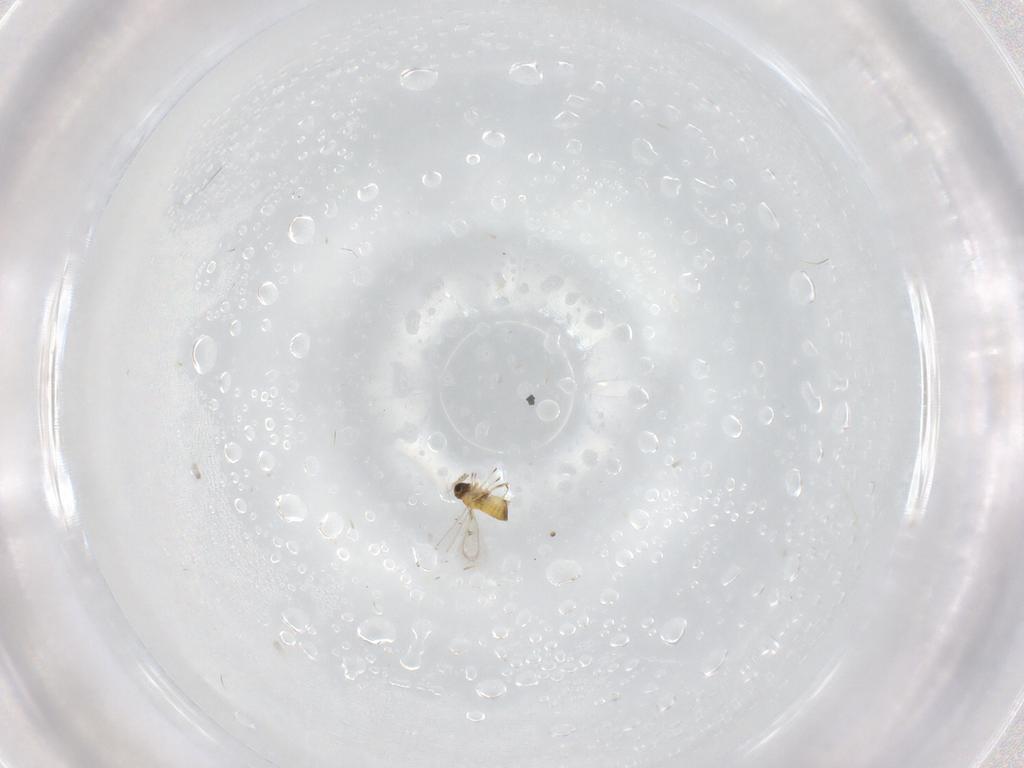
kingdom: Animalia
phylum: Arthropoda
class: Insecta
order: Hymenoptera
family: Trichogrammatidae
